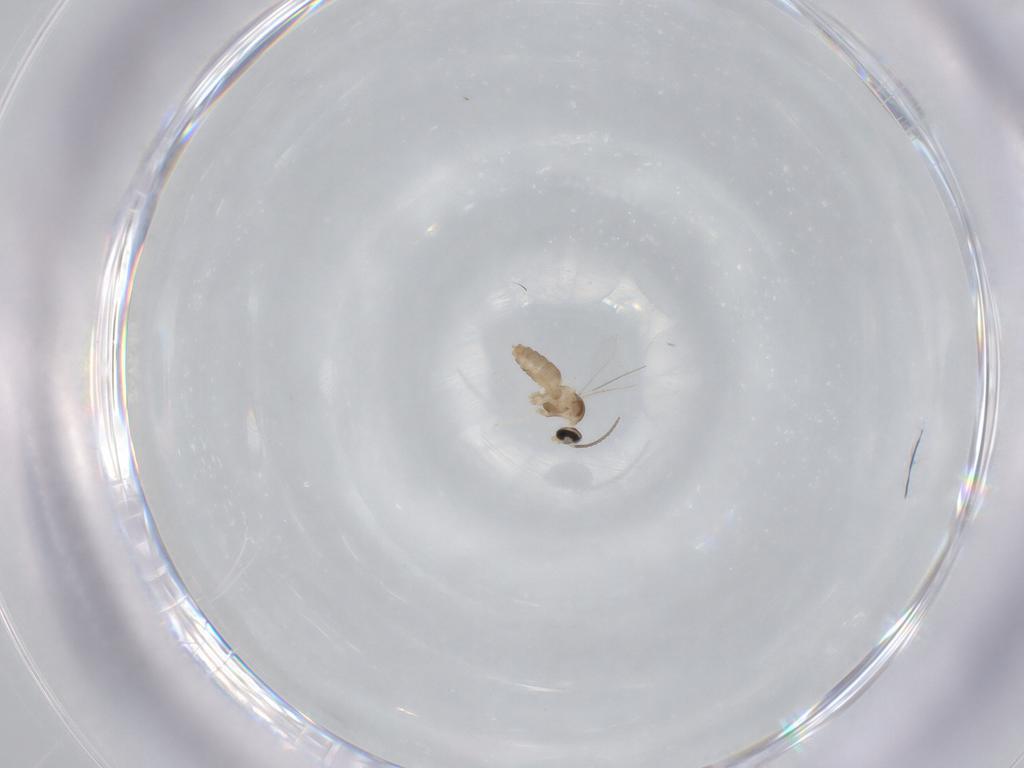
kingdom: Animalia
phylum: Arthropoda
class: Insecta
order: Diptera
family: Cecidomyiidae
